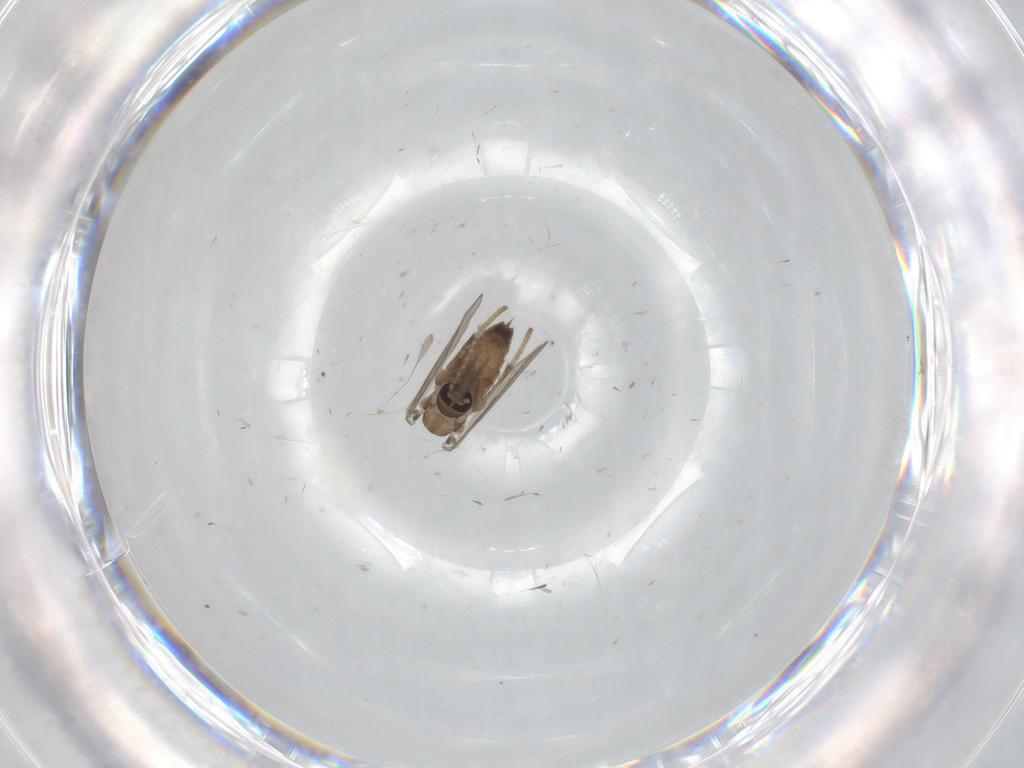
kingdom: Animalia
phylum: Arthropoda
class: Insecta
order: Diptera
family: Psychodidae
